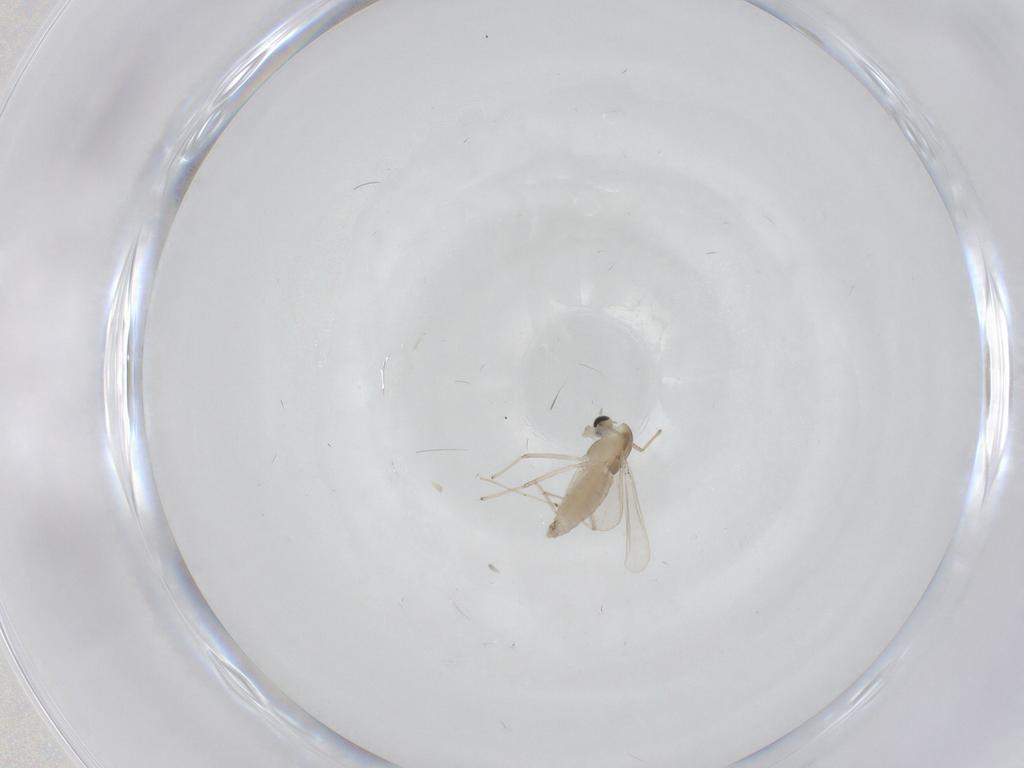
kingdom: Animalia
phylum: Arthropoda
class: Insecta
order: Diptera
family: Chironomidae
